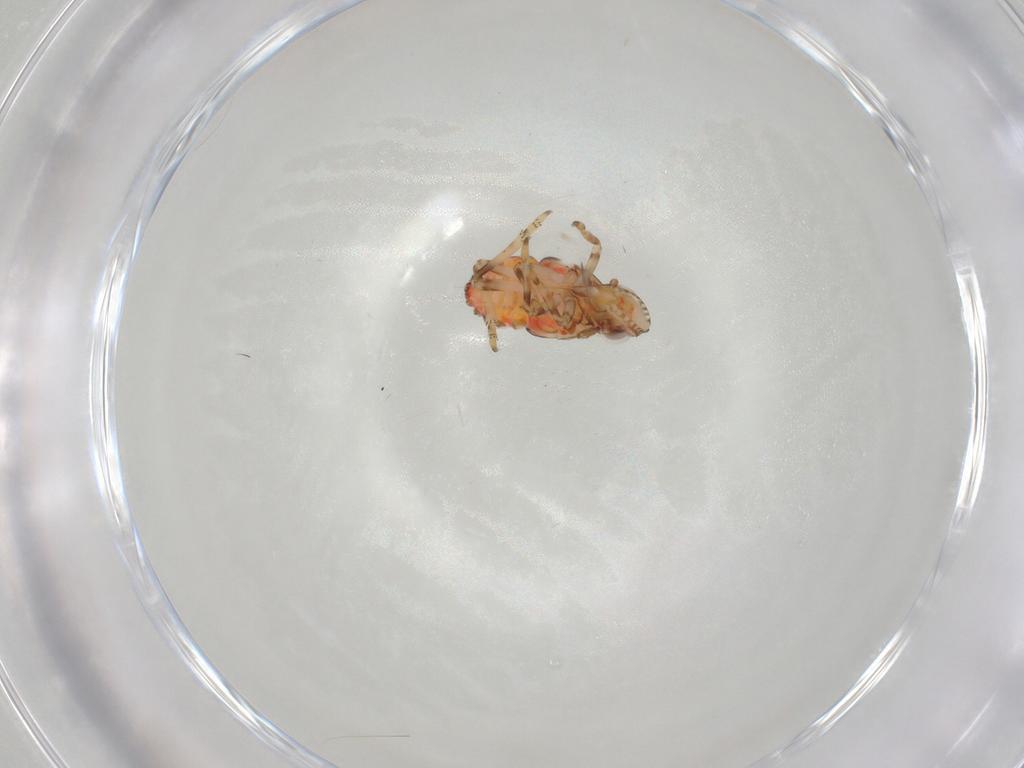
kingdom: Animalia
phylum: Arthropoda
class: Insecta
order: Hemiptera
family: Tropiduchidae
